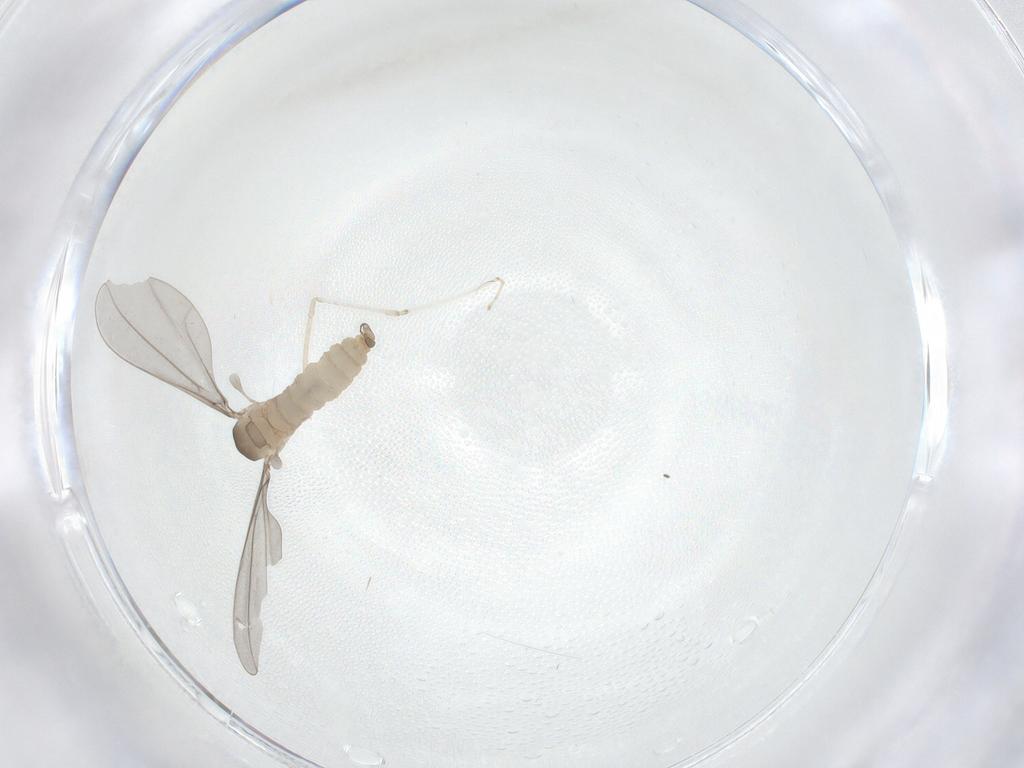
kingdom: Animalia
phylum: Arthropoda
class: Insecta
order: Diptera
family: Cecidomyiidae
